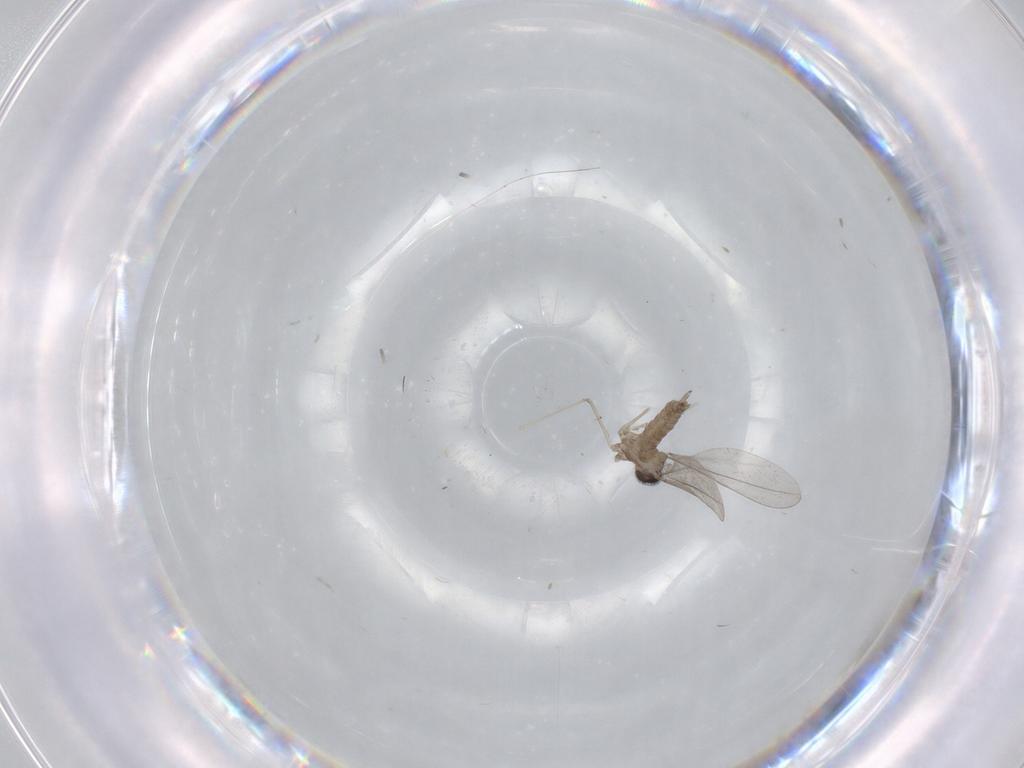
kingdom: Animalia
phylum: Arthropoda
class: Insecta
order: Diptera
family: Cecidomyiidae
